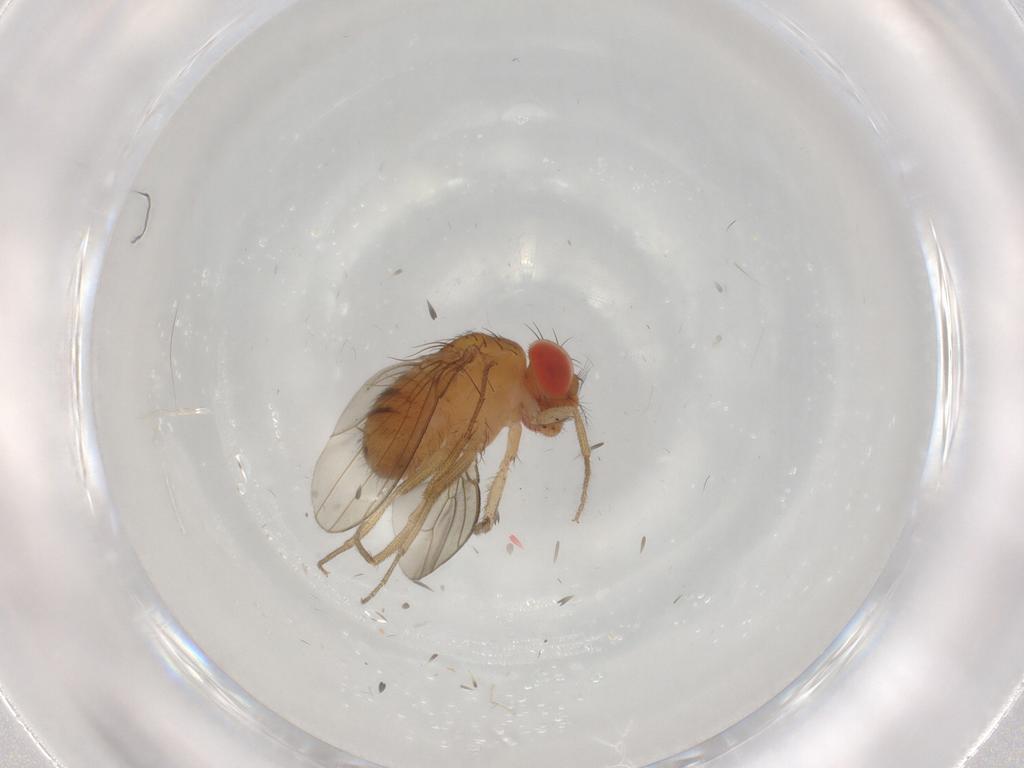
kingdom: Animalia
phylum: Arthropoda
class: Insecta
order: Diptera
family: Drosophilidae
